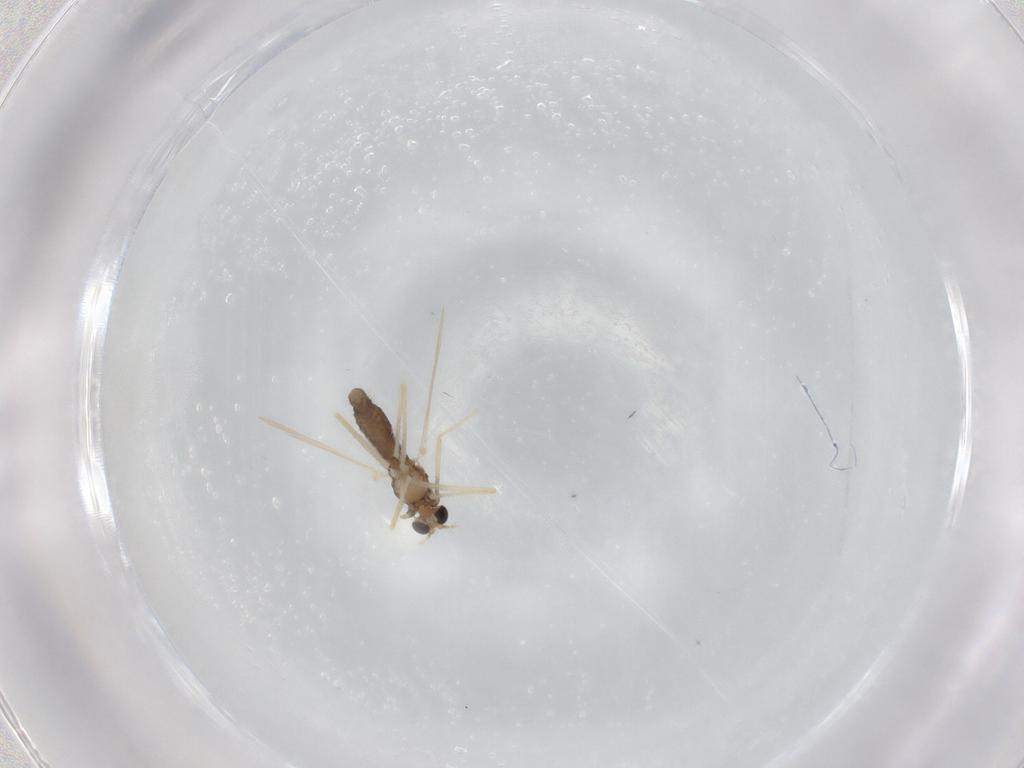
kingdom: Animalia
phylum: Arthropoda
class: Insecta
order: Diptera
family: Chironomidae
